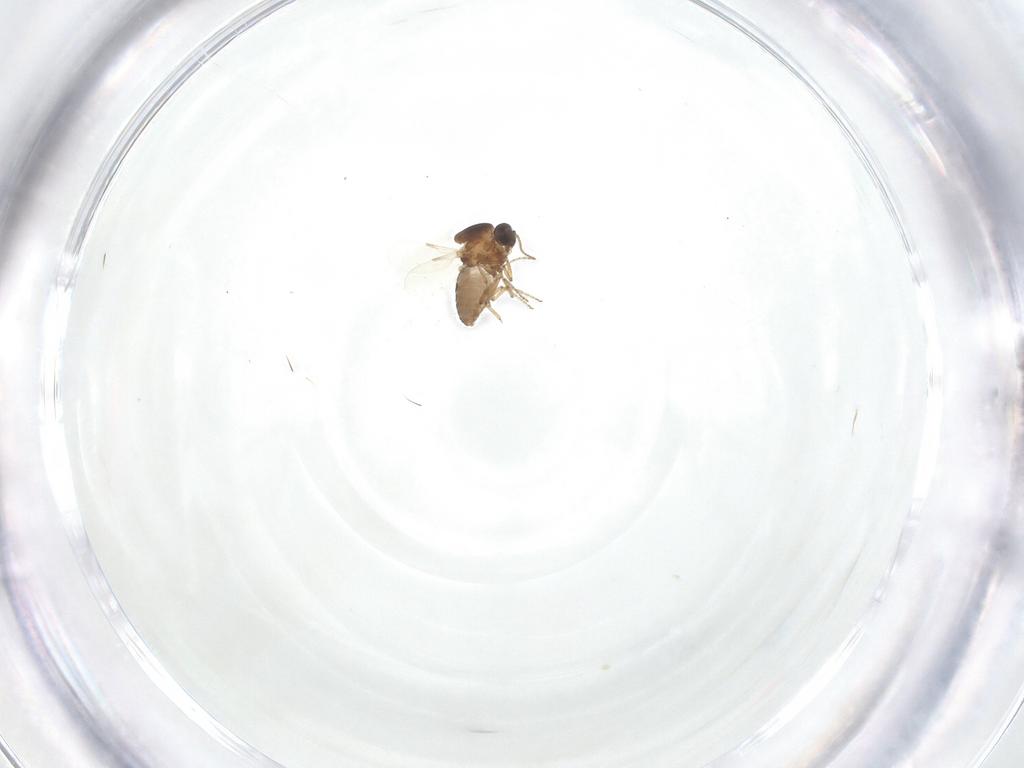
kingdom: Animalia
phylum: Arthropoda
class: Insecta
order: Diptera
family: Ceratopogonidae
